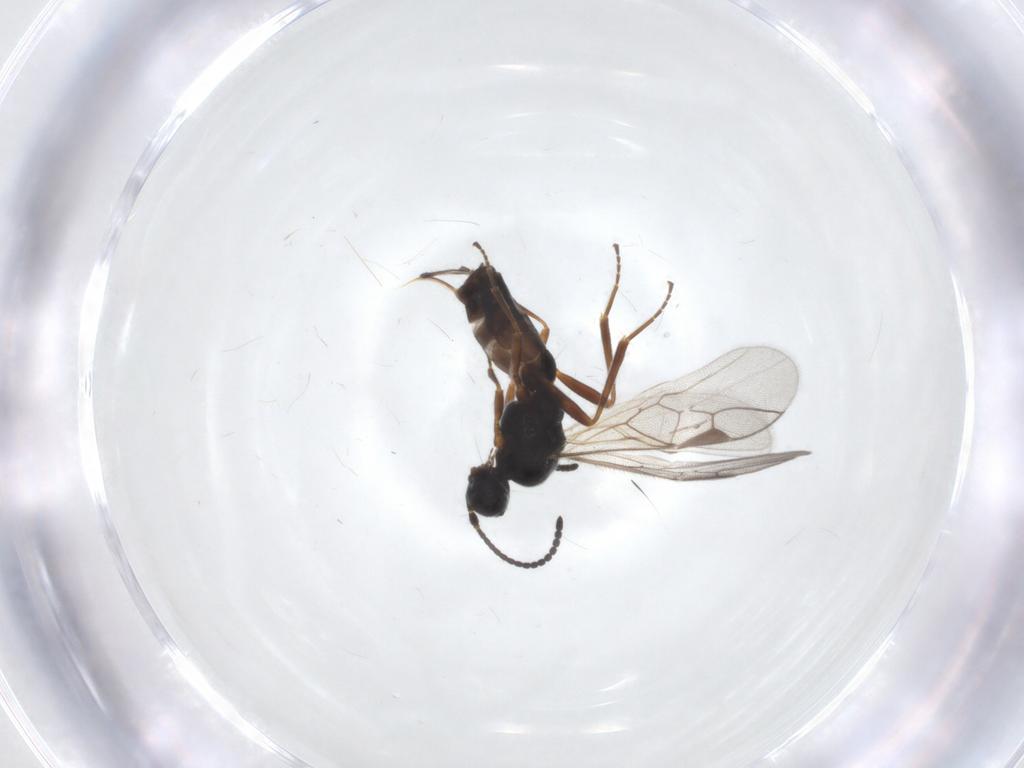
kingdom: Animalia
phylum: Arthropoda
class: Insecta
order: Hymenoptera
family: Braconidae
